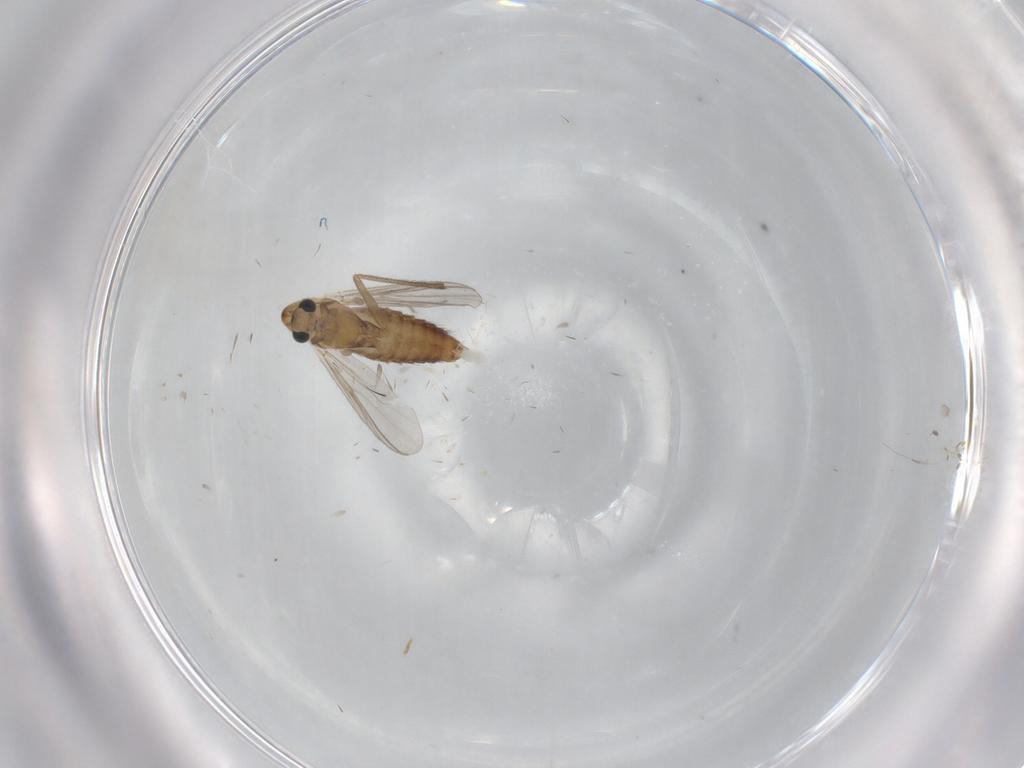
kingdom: Animalia
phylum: Arthropoda
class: Insecta
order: Diptera
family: Chironomidae
